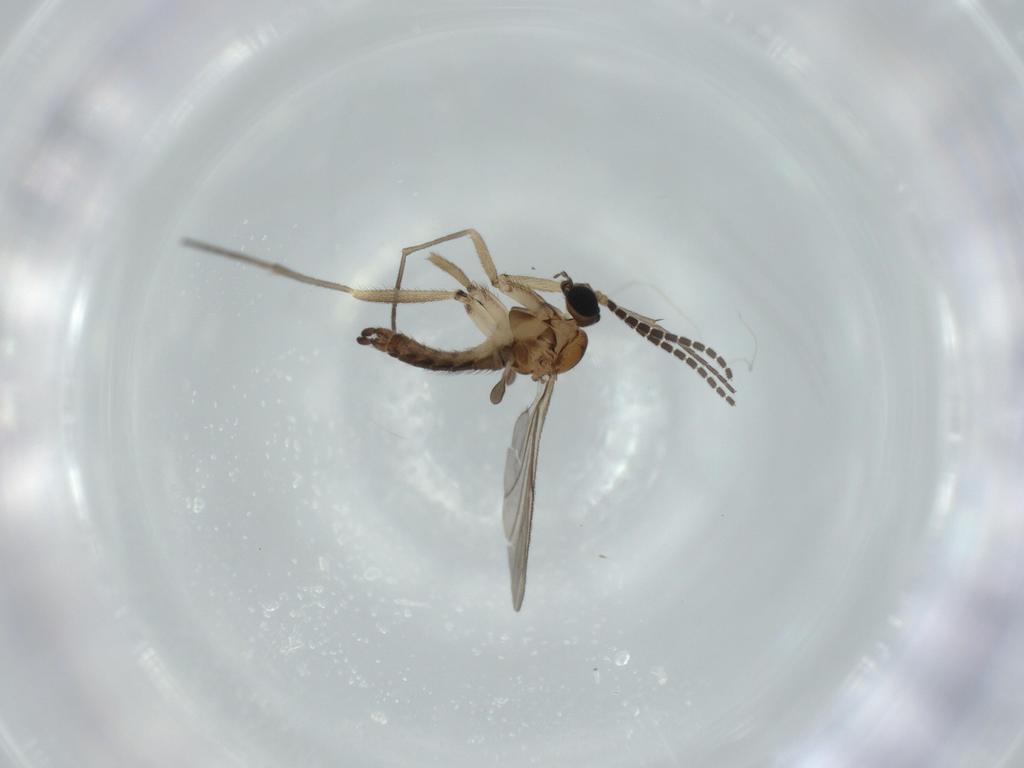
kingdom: Animalia
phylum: Arthropoda
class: Insecta
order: Diptera
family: Sciaridae
